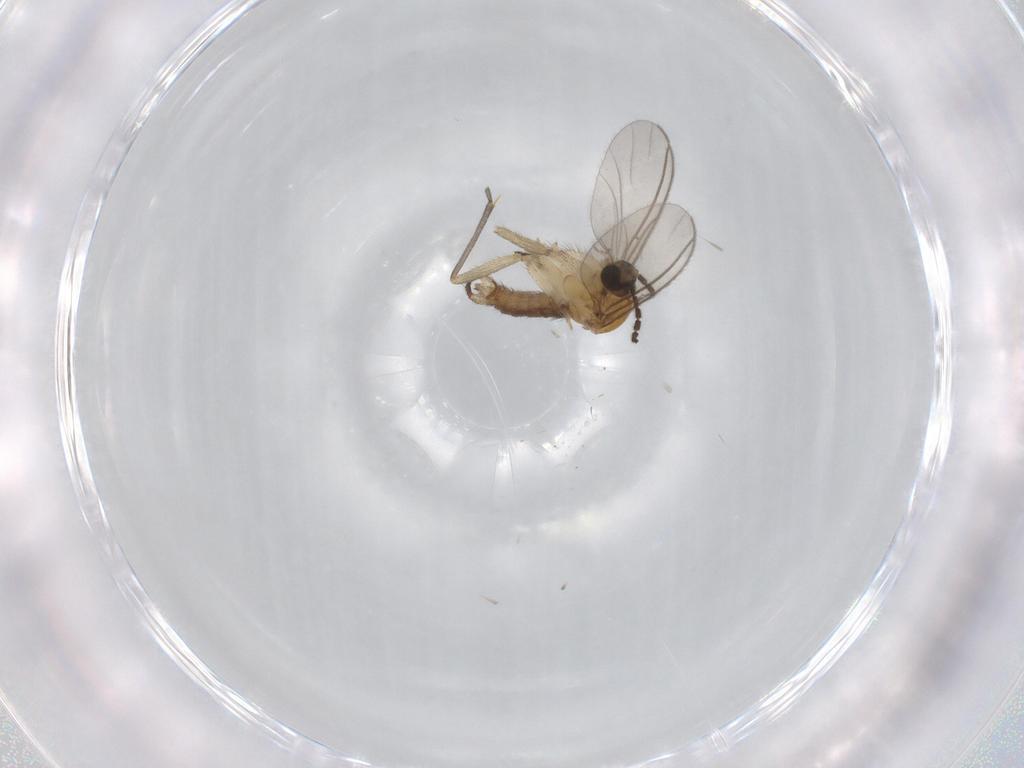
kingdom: Animalia
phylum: Arthropoda
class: Insecta
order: Diptera
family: Sciaridae
